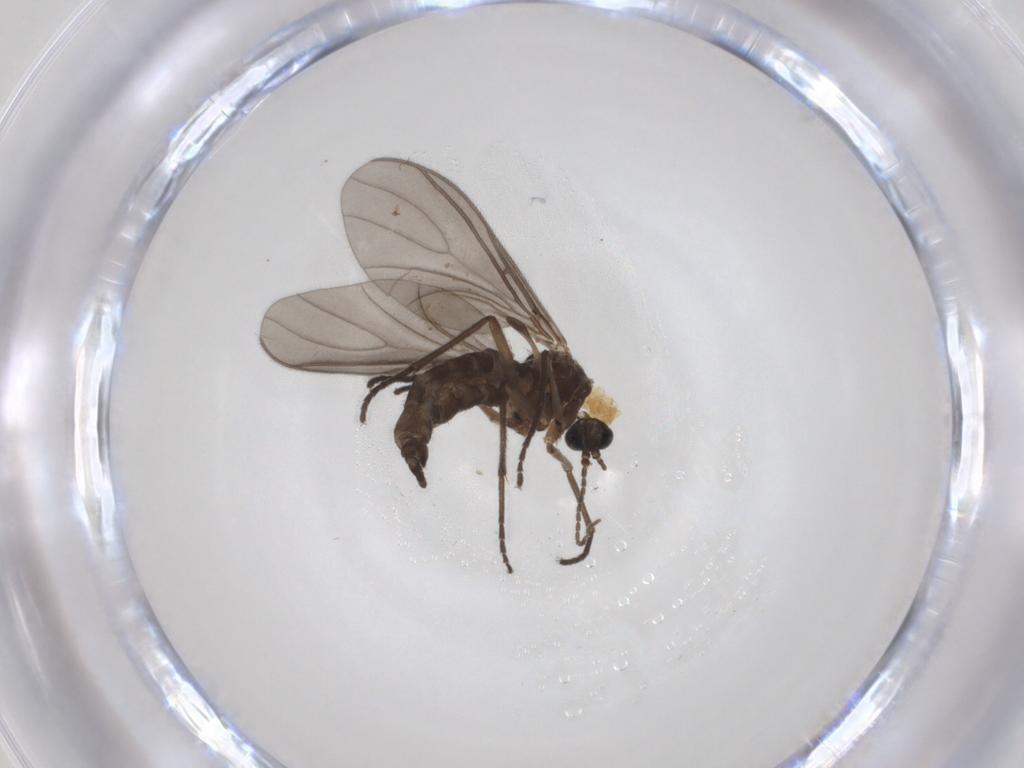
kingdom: Animalia
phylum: Arthropoda
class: Insecta
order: Diptera
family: Sciaridae
